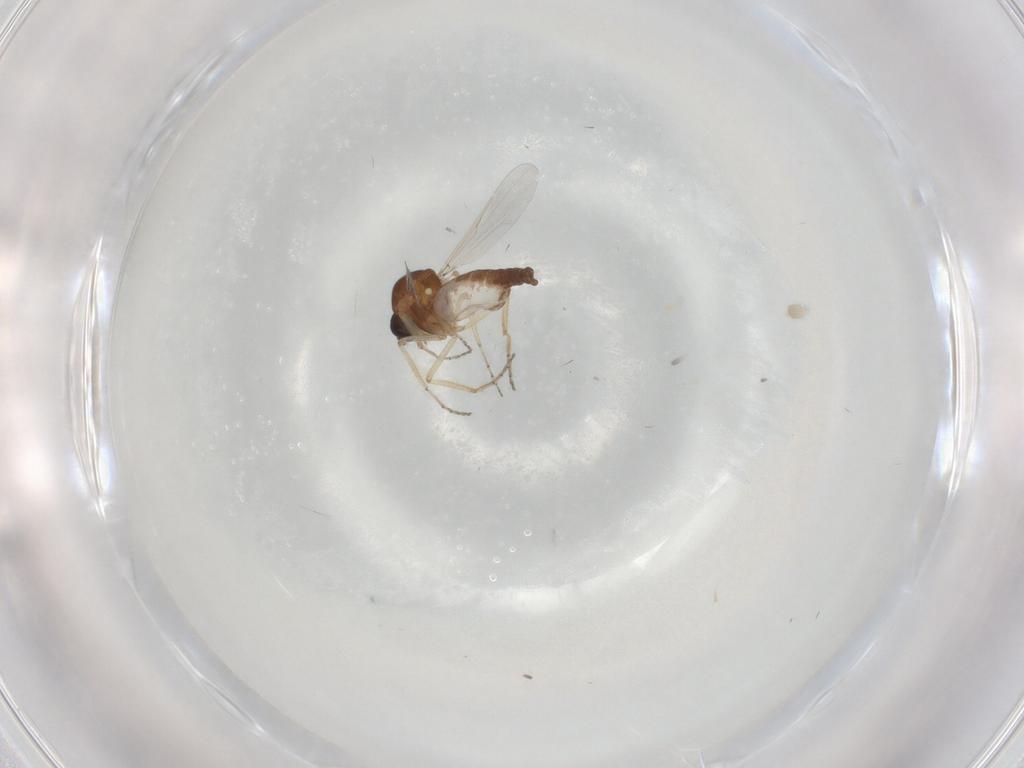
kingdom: Animalia
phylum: Arthropoda
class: Insecta
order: Diptera
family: Ceratopogonidae
